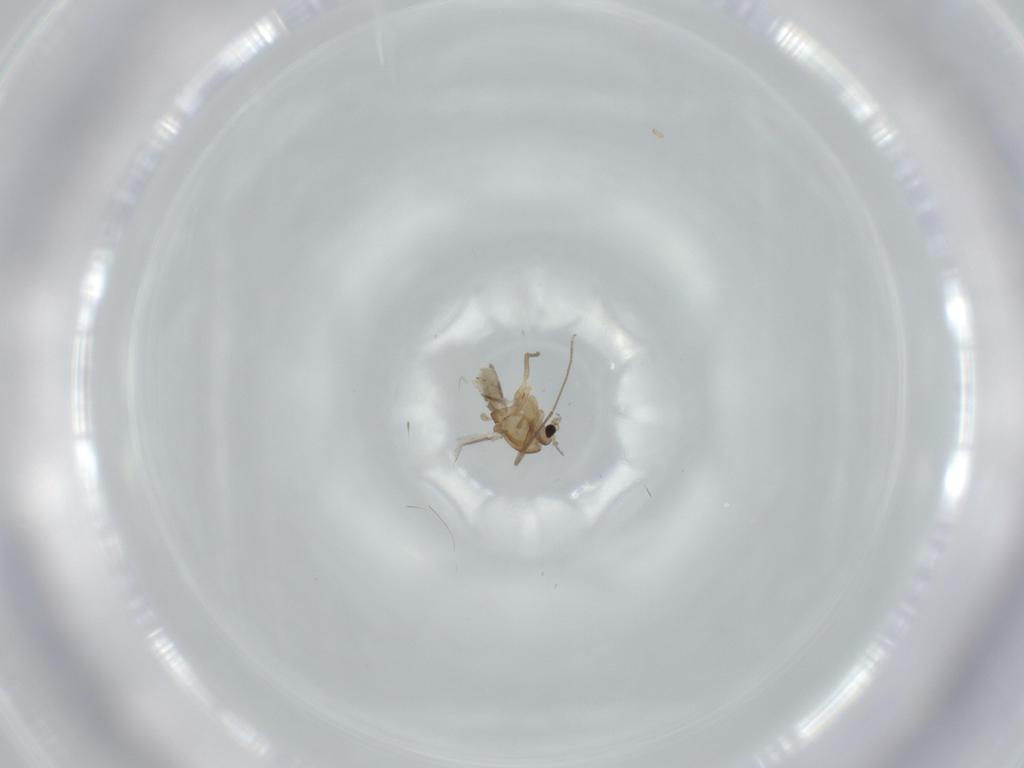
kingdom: Animalia
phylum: Arthropoda
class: Insecta
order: Diptera
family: Chironomidae
